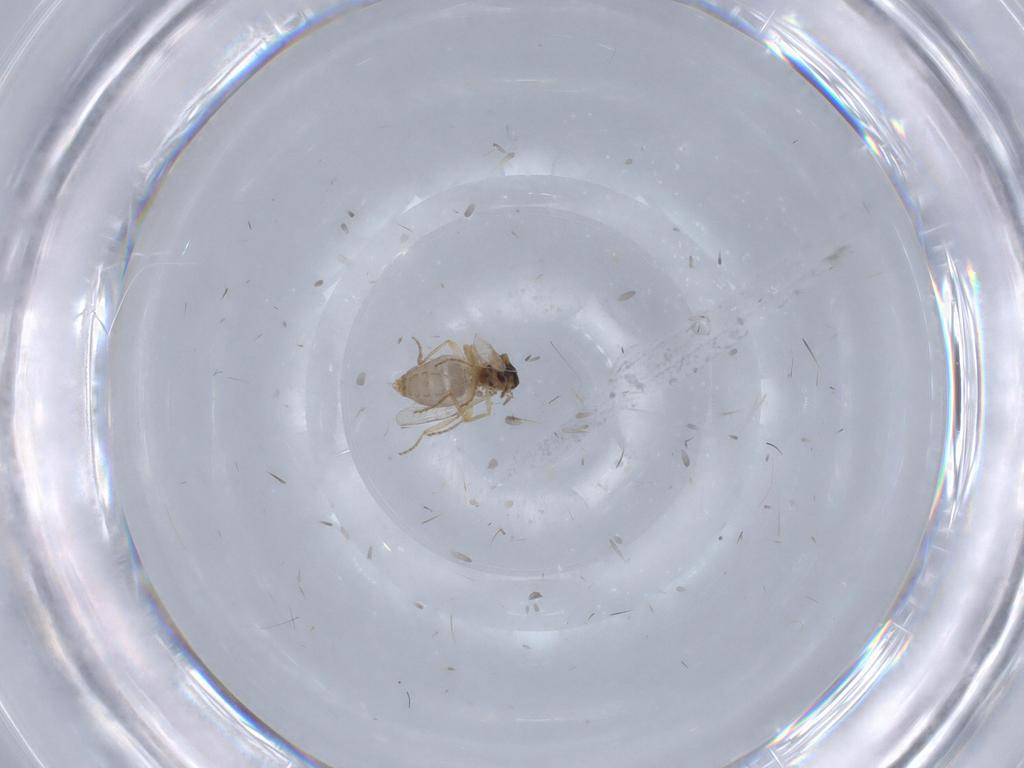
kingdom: Animalia
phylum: Arthropoda
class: Insecta
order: Diptera
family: Ceratopogonidae
